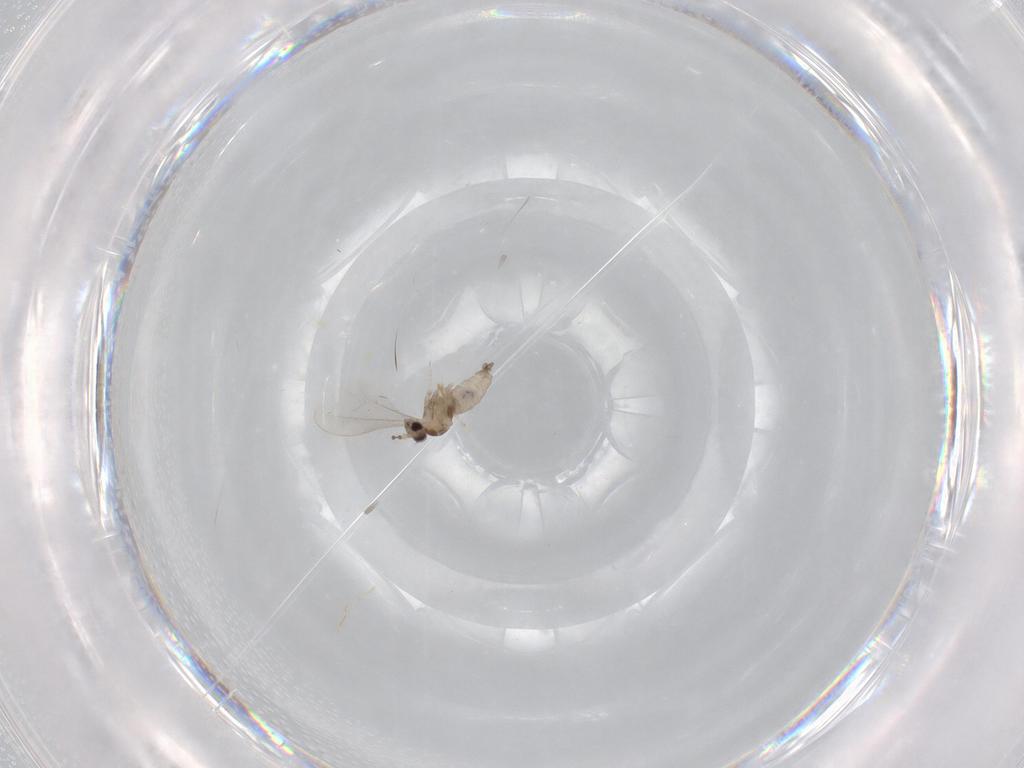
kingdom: Animalia
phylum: Arthropoda
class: Insecta
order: Diptera
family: Cecidomyiidae
